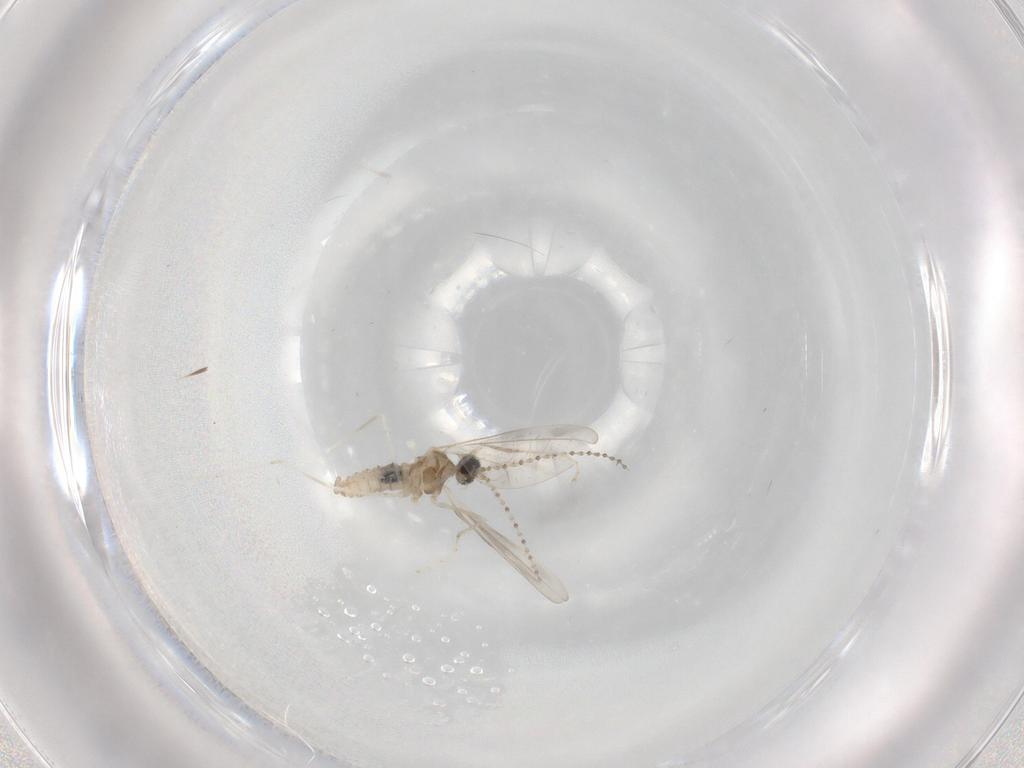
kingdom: Animalia
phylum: Arthropoda
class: Insecta
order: Diptera
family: Cecidomyiidae
